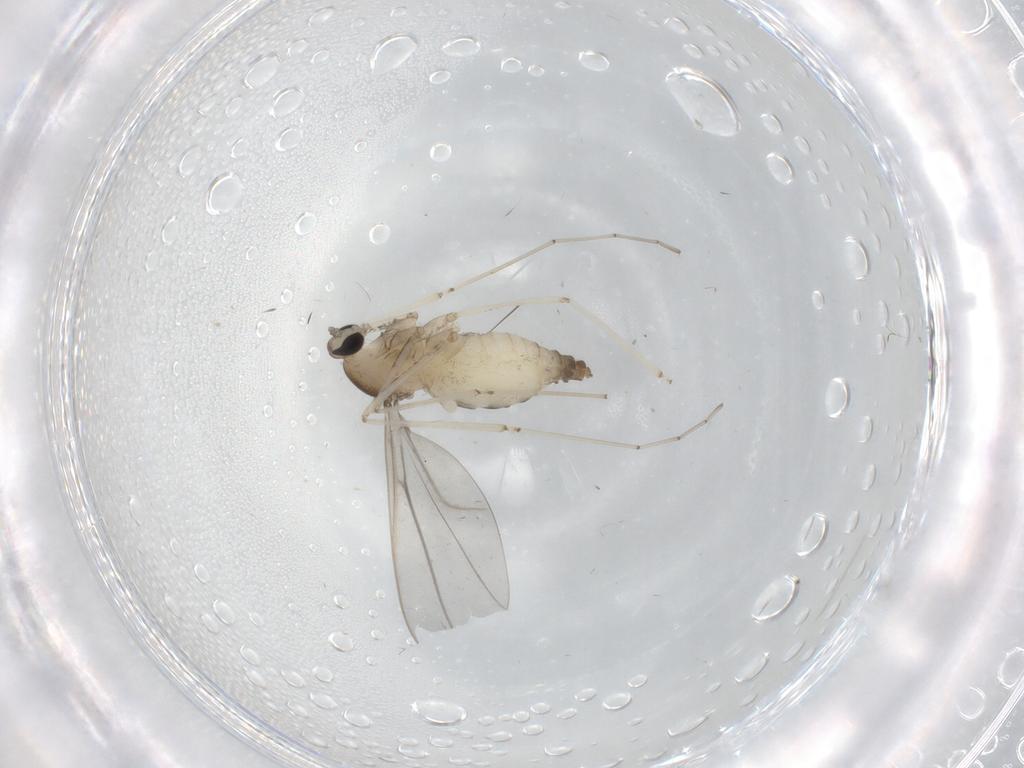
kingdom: Animalia
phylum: Arthropoda
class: Insecta
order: Diptera
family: Cecidomyiidae
